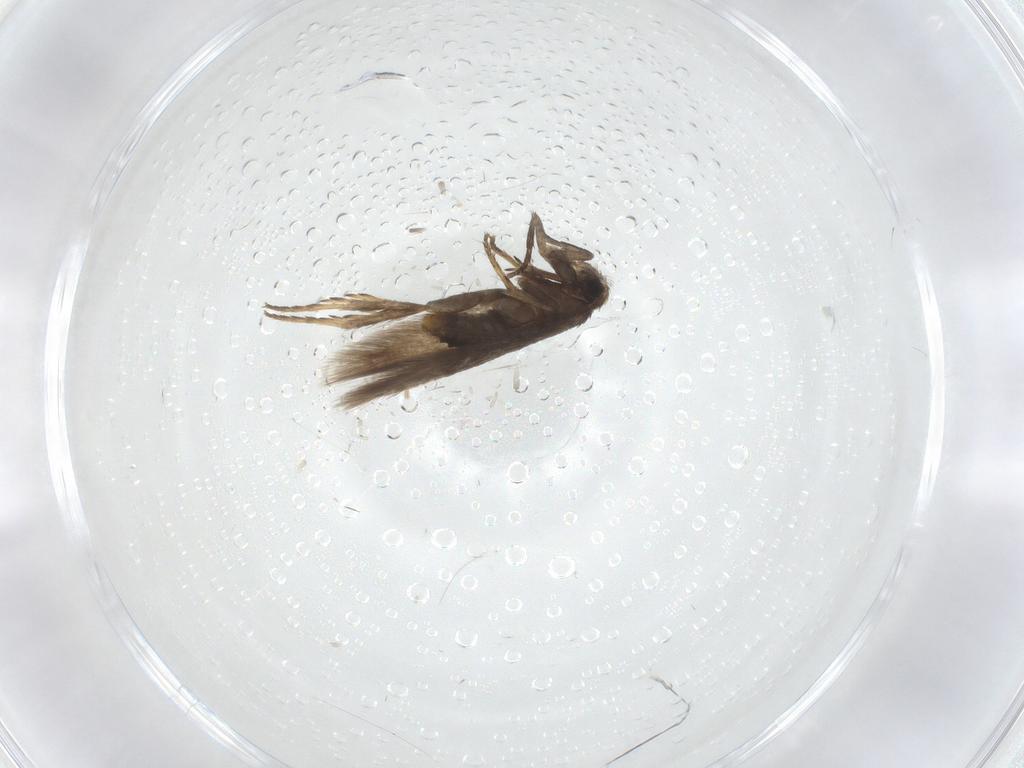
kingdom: Animalia
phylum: Arthropoda
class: Insecta
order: Lepidoptera
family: Nepticulidae
